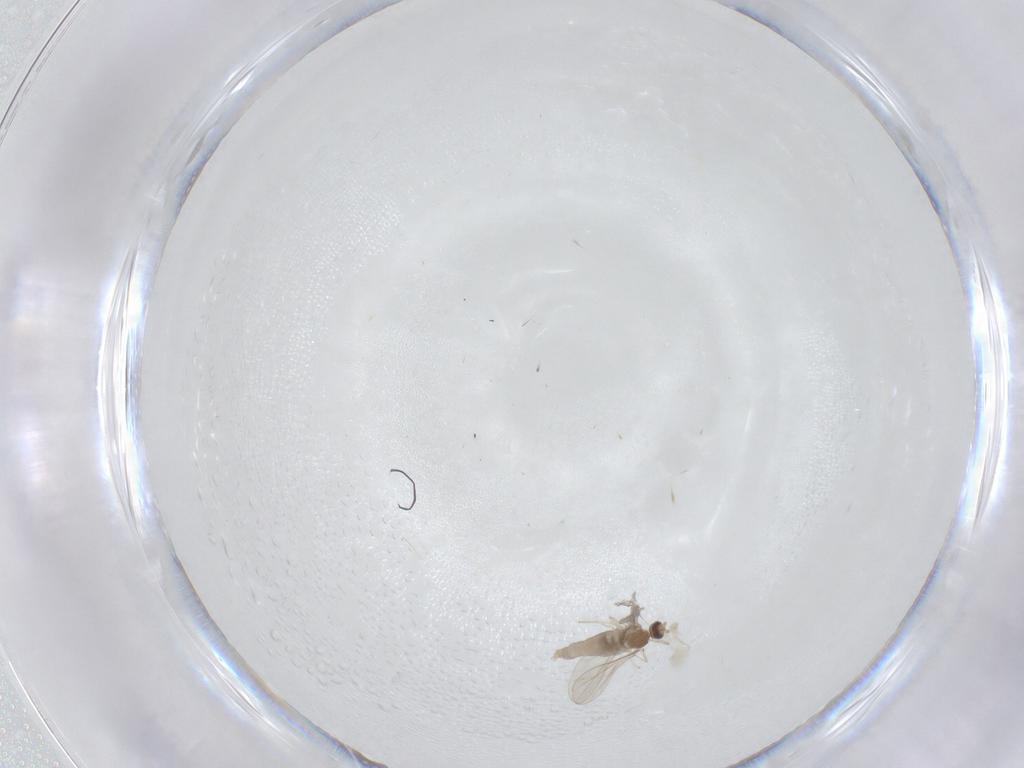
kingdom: Animalia
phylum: Arthropoda
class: Insecta
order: Diptera
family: Cecidomyiidae
